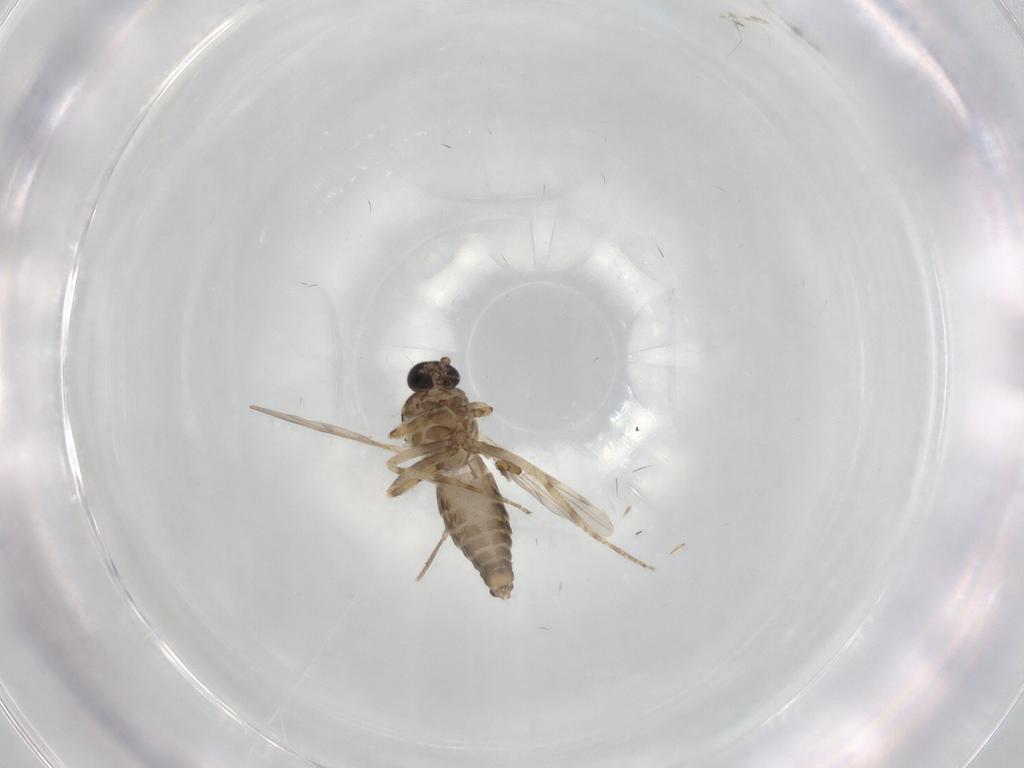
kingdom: Animalia
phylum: Arthropoda
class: Insecta
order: Diptera
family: Ceratopogonidae
